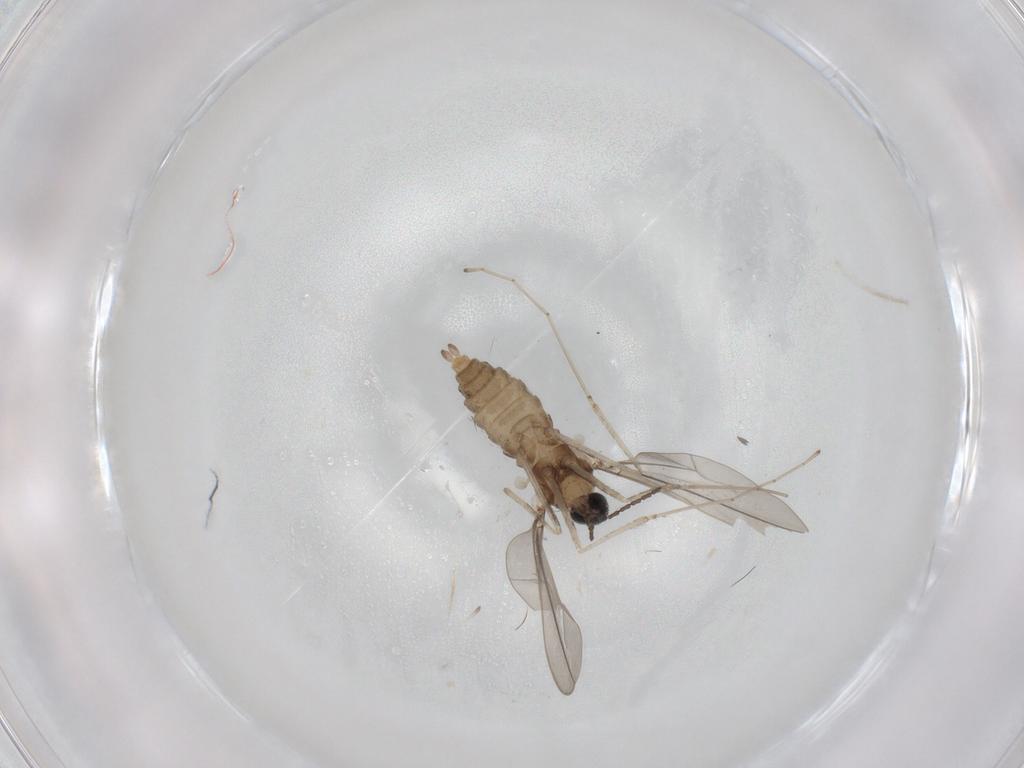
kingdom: Animalia
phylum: Arthropoda
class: Insecta
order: Diptera
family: Cecidomyiidae
